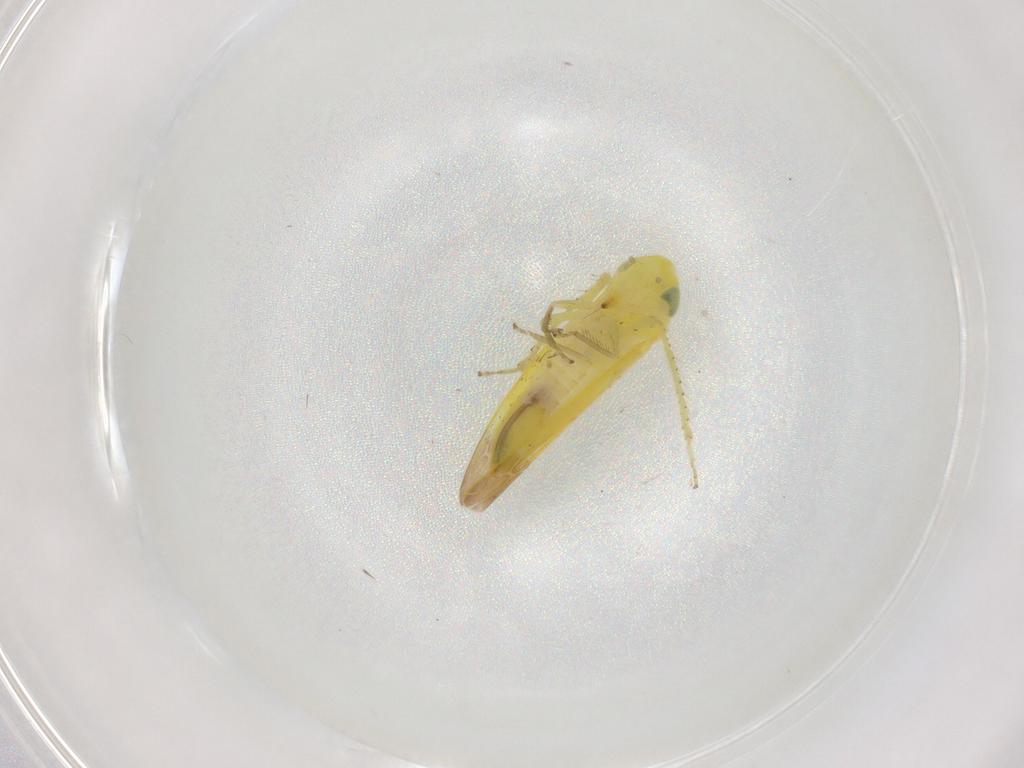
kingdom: Animalia
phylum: Arthropoda
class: Insecta
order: Hemiptera
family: Cicadellidae
